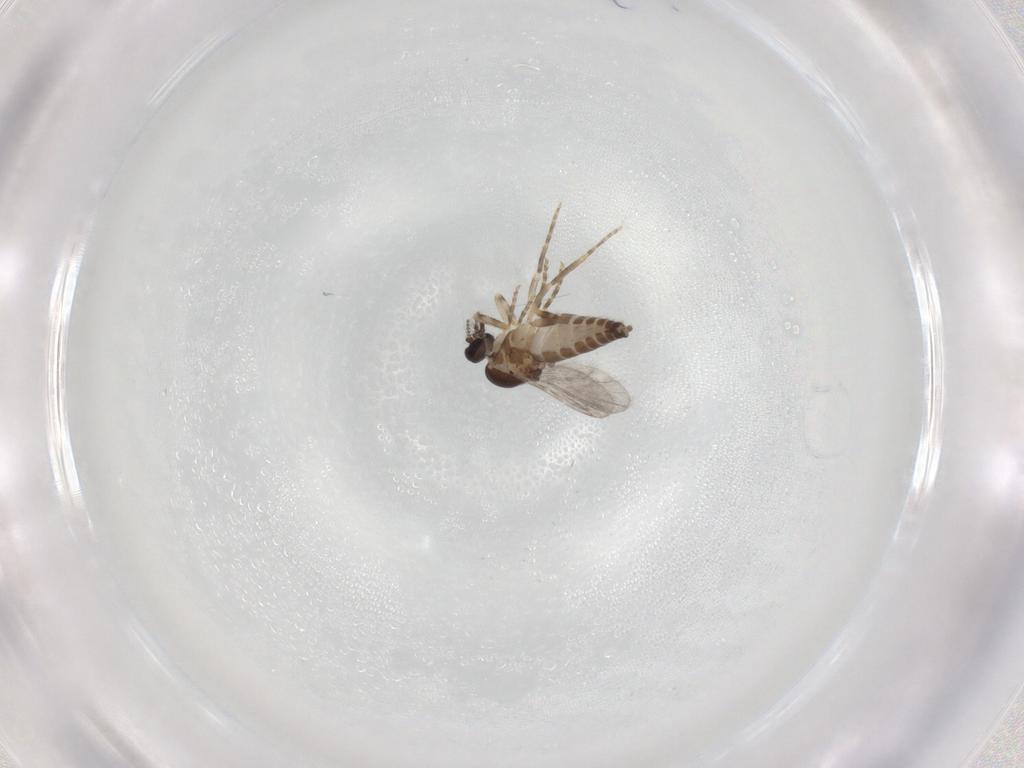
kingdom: Animalia
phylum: Arthropoda
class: Insecta
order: Diptera
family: Ceratopogonidae
